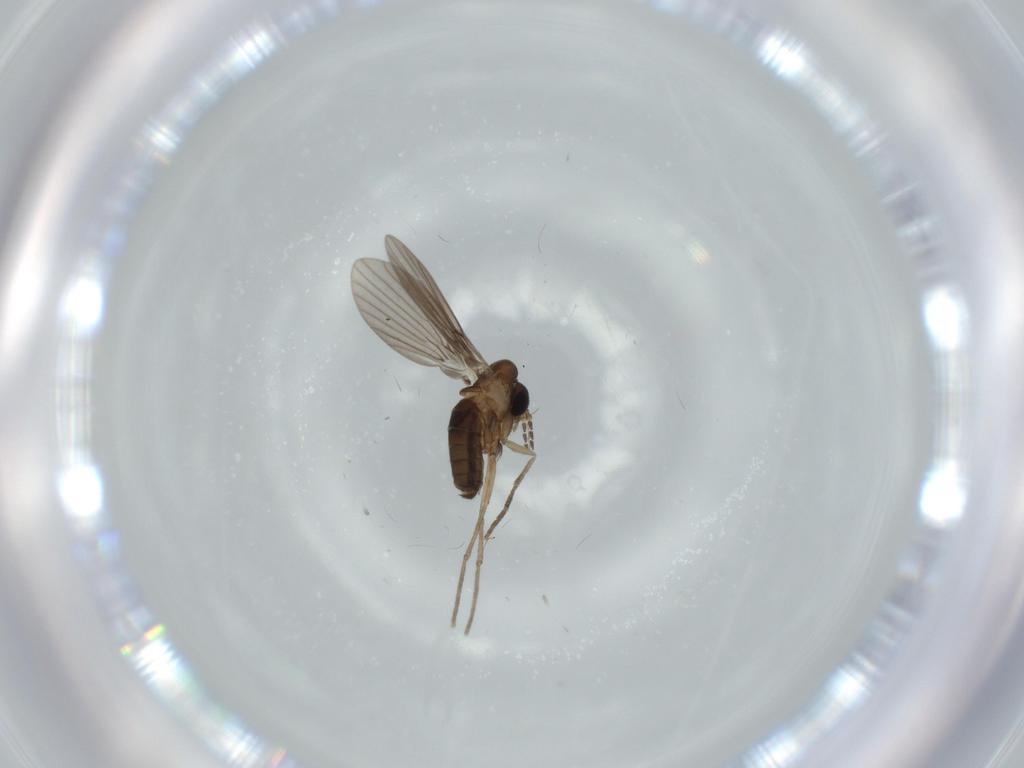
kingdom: Animalia
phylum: Arthropoda
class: Insecta
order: Diptera
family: Psychodidae
